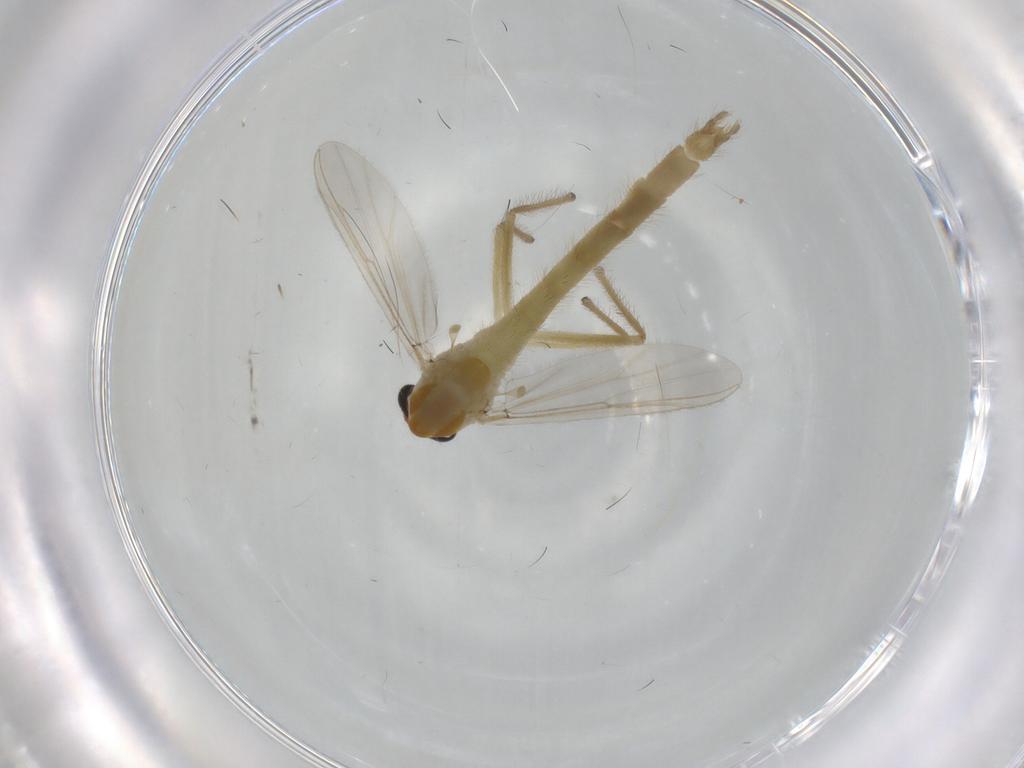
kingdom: Animalia
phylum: Arthropoda
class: Insecta
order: Diptera
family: Chironomidae
